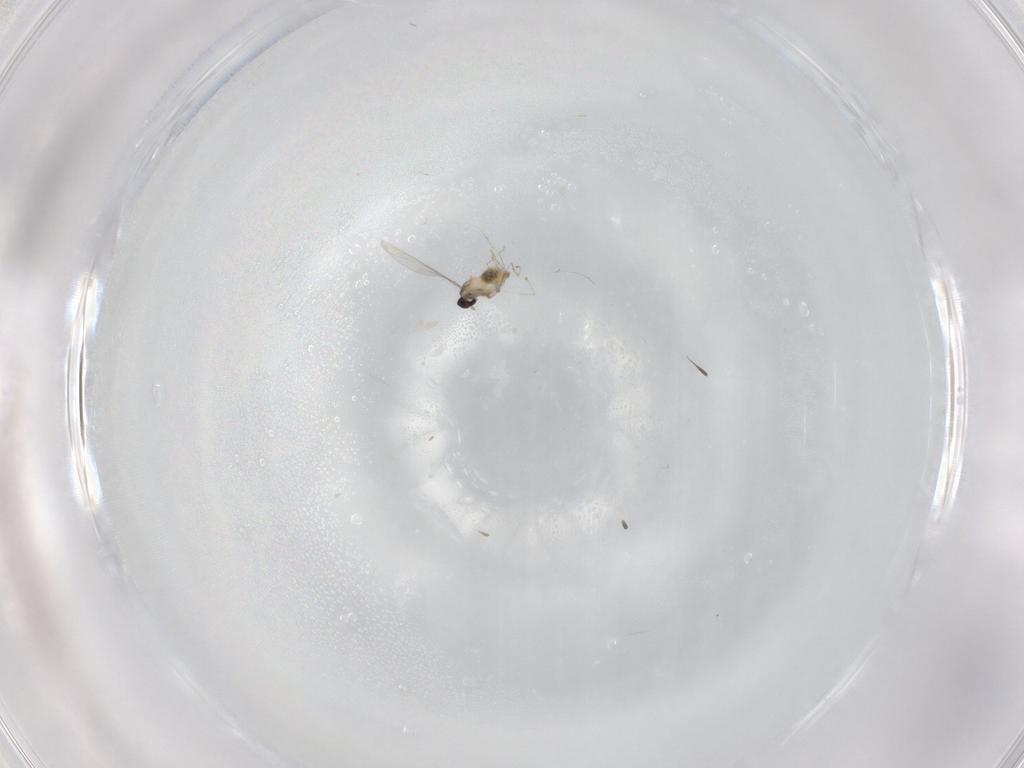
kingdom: Animalia
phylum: Arthropoda
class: Insecta
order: Diptera
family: Cecidomyiidae
